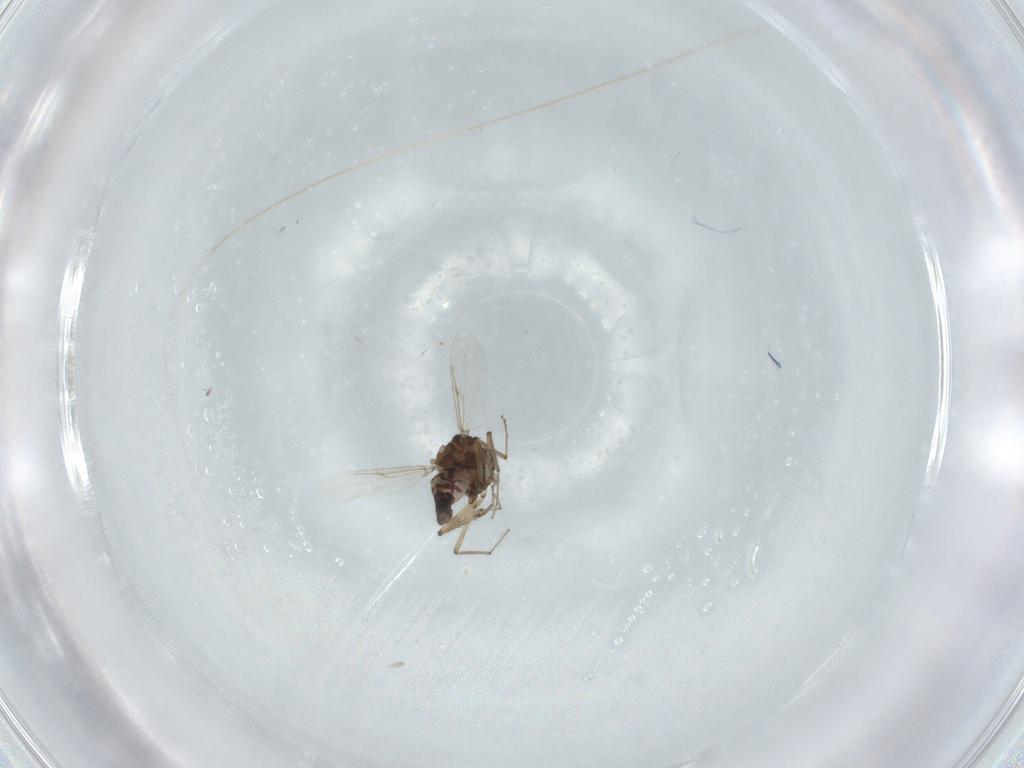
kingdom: Animalia
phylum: Arthropoda
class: Insecta
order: Diptera
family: Ceratopogonidae
